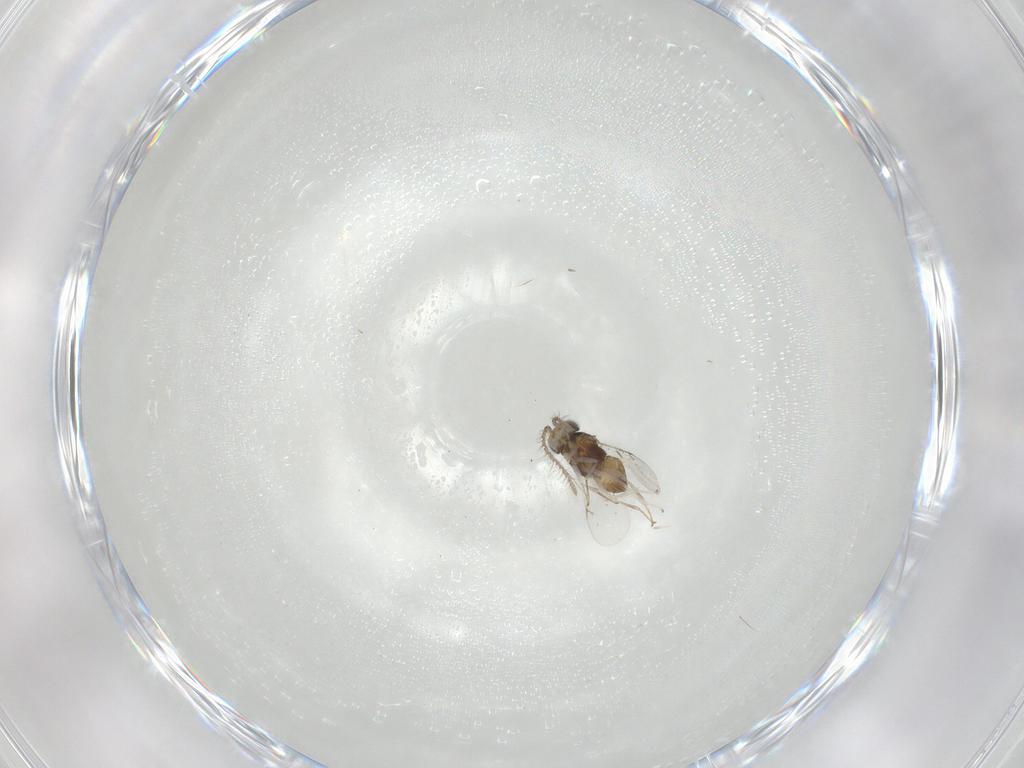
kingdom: Animalia
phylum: Arthropoda
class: Insecta
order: Hymenoptera
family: Encyrtidae
